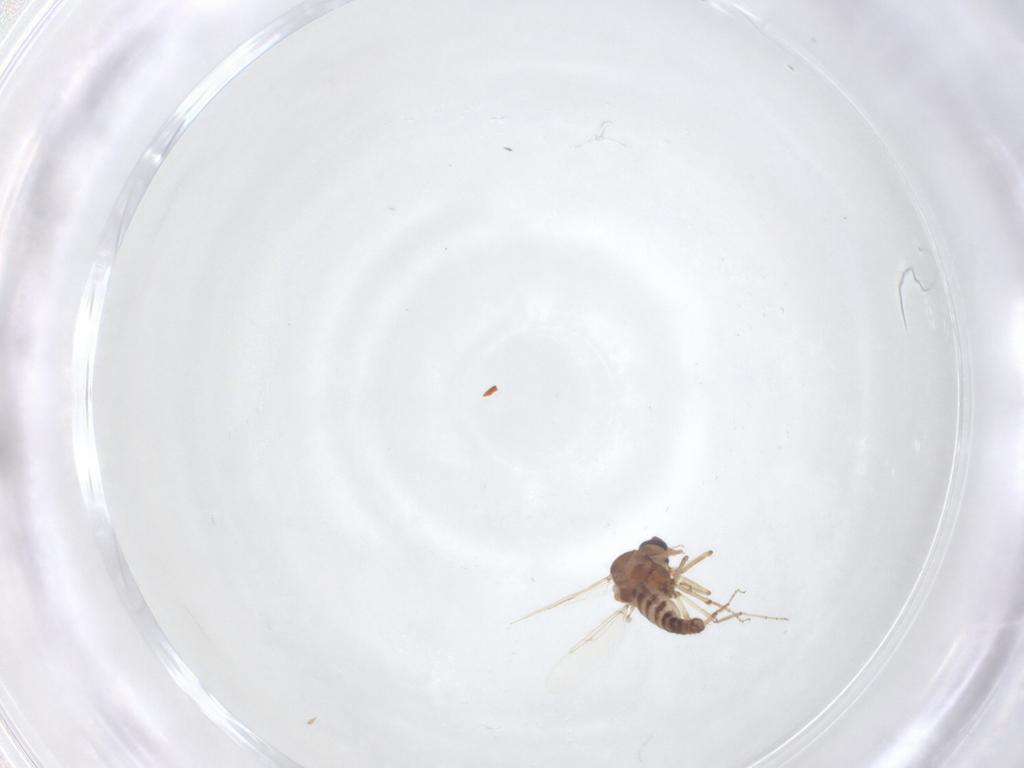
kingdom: Animalia
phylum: Arthropoda
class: Insecta
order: Diptera
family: Ceratopogonidae
